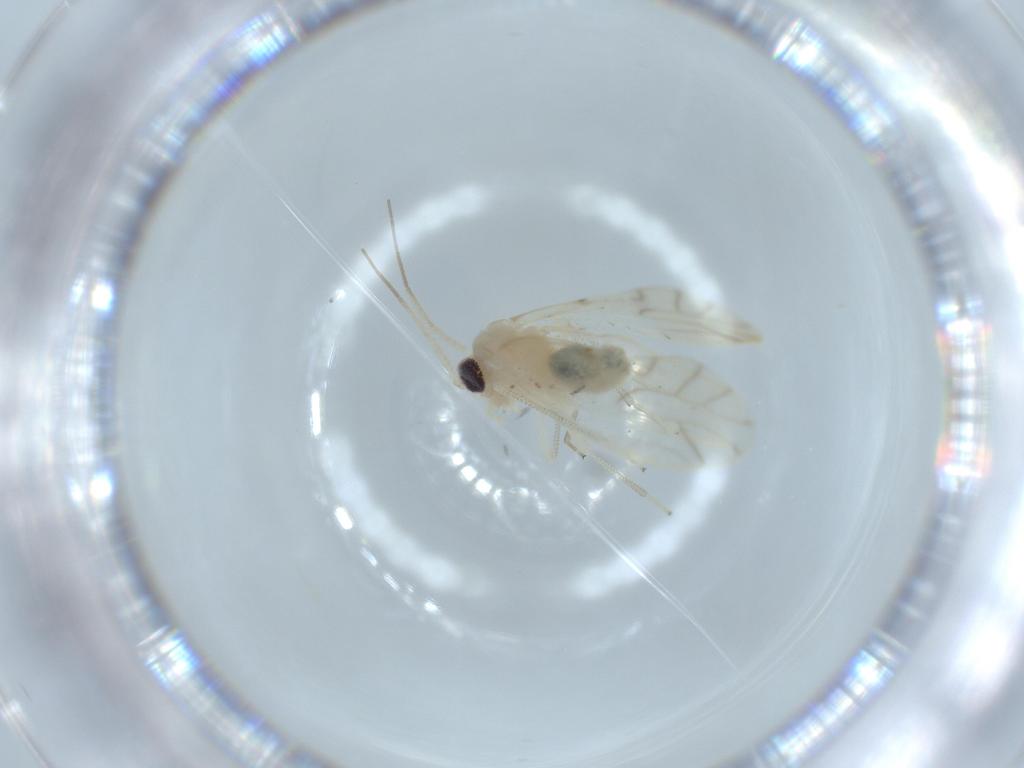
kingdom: Animalia
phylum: Arthropoda
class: Insecta
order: Psocodea
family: Caeciliusidae
